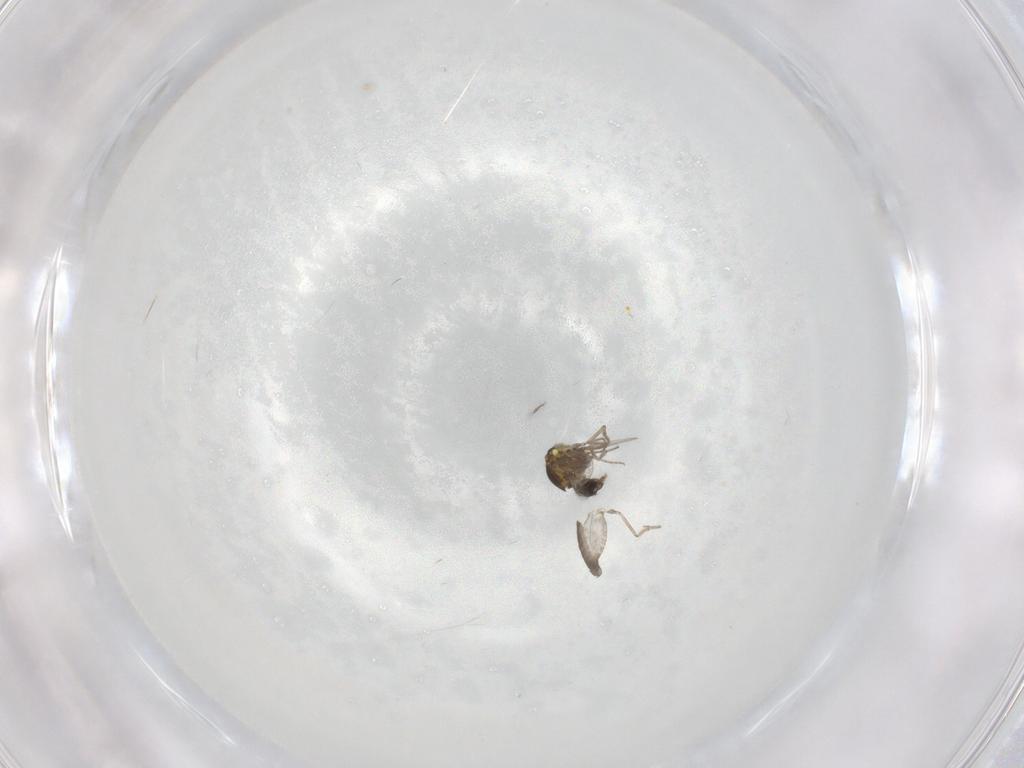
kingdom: Animalia
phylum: Arthropoda
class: Insecta
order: Diptera
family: Ceratopogonidae
